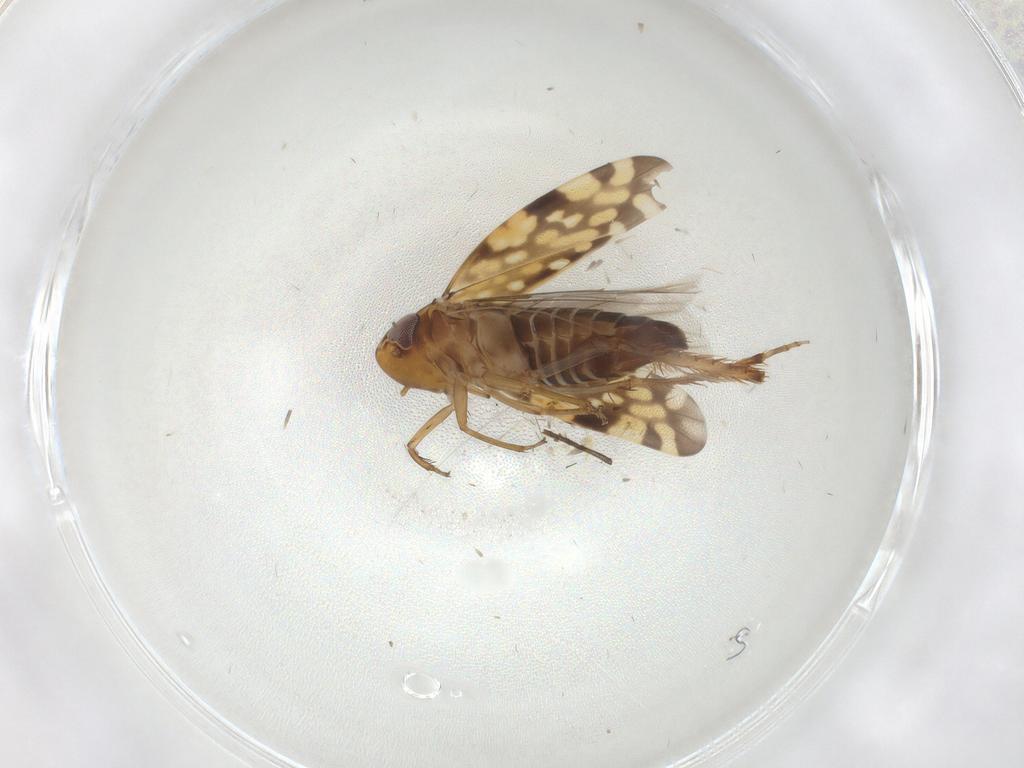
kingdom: Animalia
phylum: Arthropoda
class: Insecta
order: Hemiptera
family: Cicadellidae
